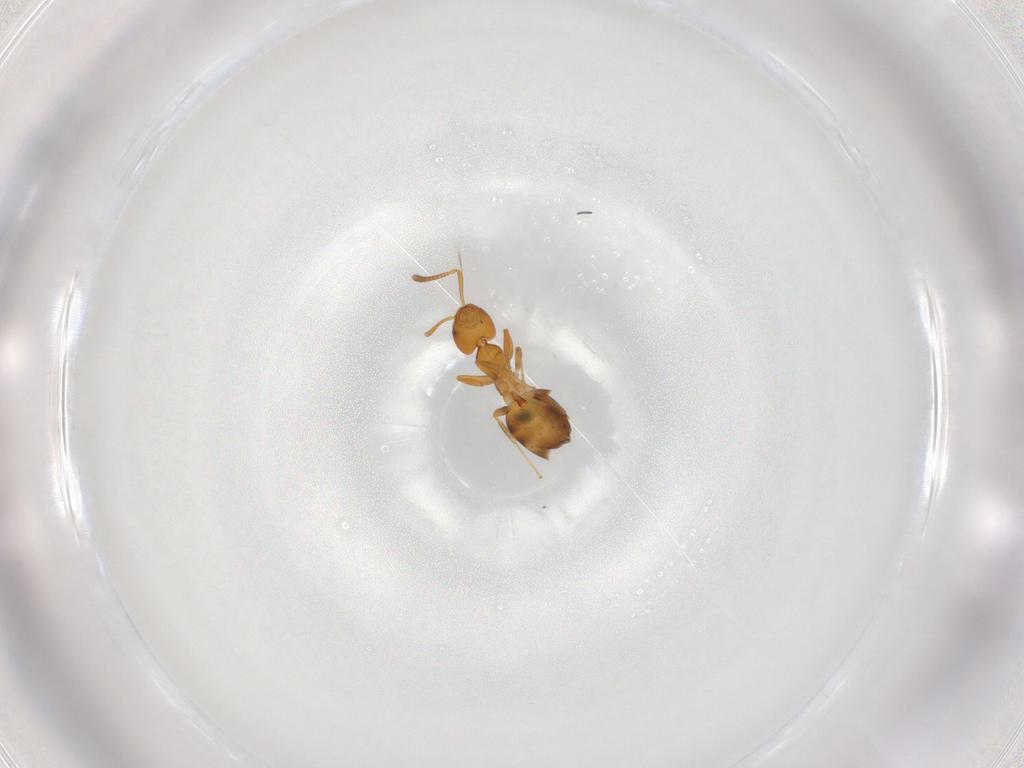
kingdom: Animalia
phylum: Arthropoda
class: Insecta
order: Hymenoptera
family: Formicidae
